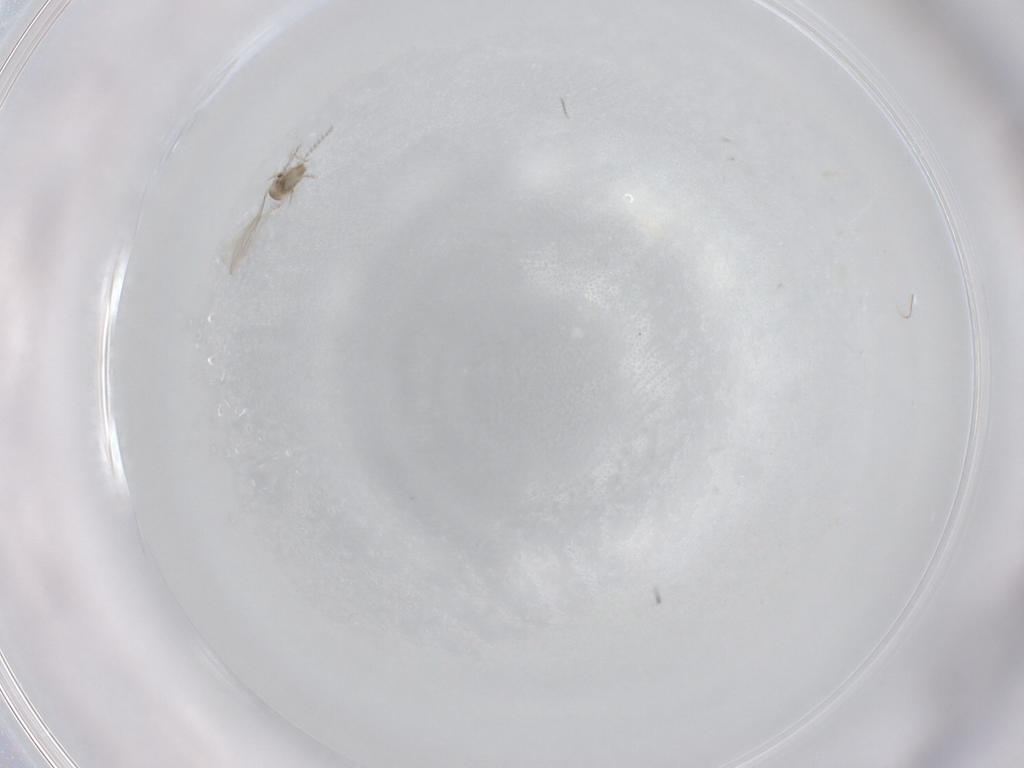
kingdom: Animalia
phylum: Arthropoda
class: Insecta
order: Diptera
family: Cecidomyiidae
